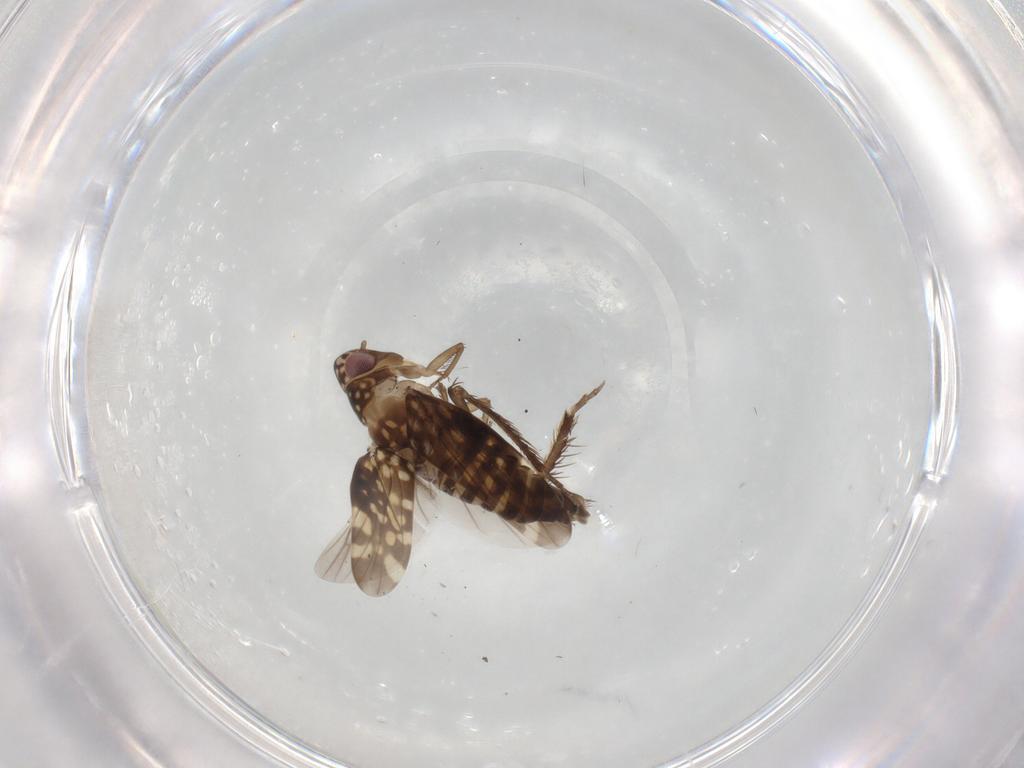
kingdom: Animalia
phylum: Arthropoda
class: Insecta
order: Hemiptera
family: Cicadellidae
